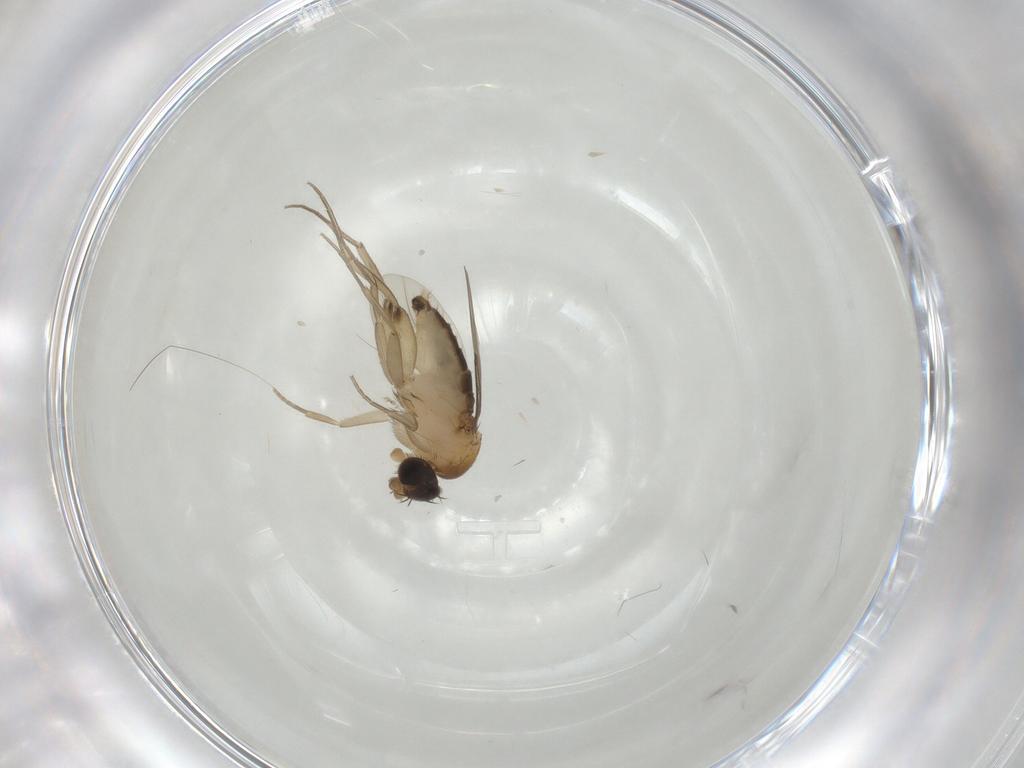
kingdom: Animalia
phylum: Arthropoda
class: Insecta
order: Diptera
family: Phoridae
